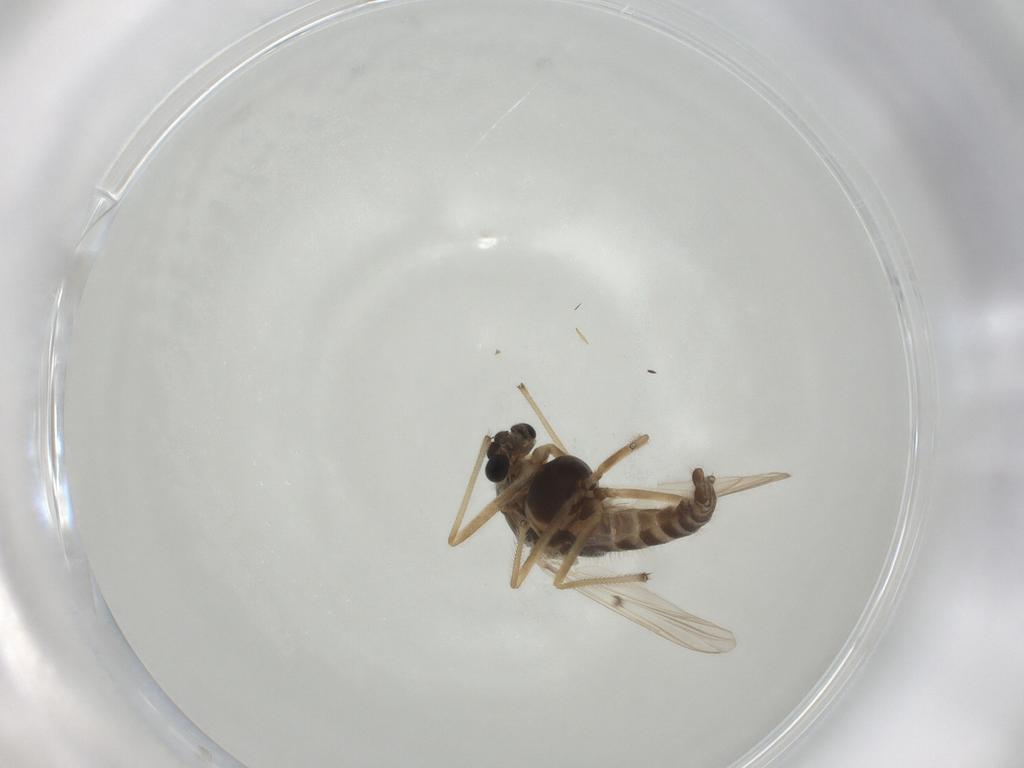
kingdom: Animalia
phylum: Arthropoda
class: Insecta
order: Diptera
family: Chironomidae
